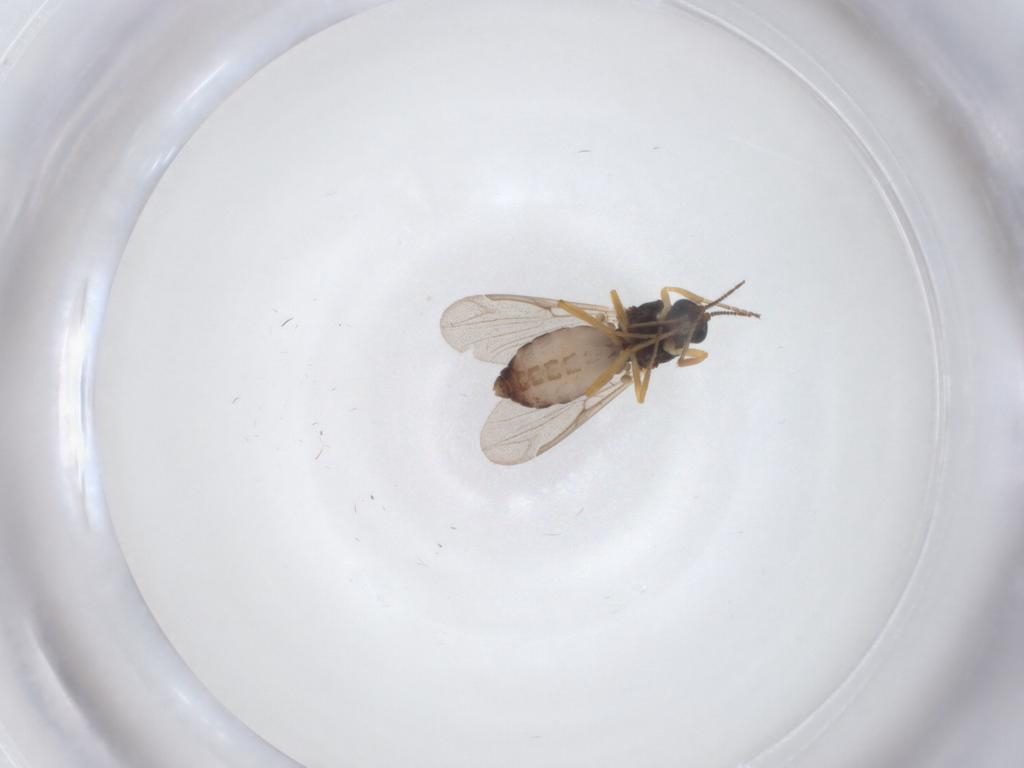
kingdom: Animalia
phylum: Arthropoda
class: Insecta
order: Diptera
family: Ceratopogonidae
